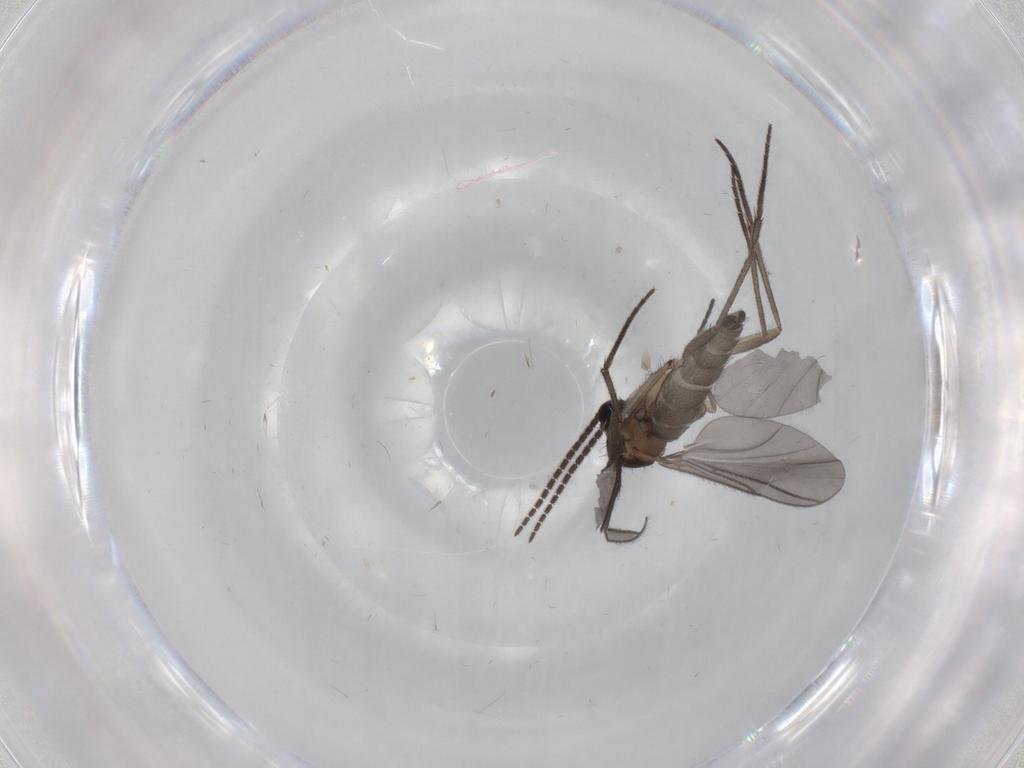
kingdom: Animalia
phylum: Arthropoda
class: Insecta
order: Diptera
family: Sciaridae
